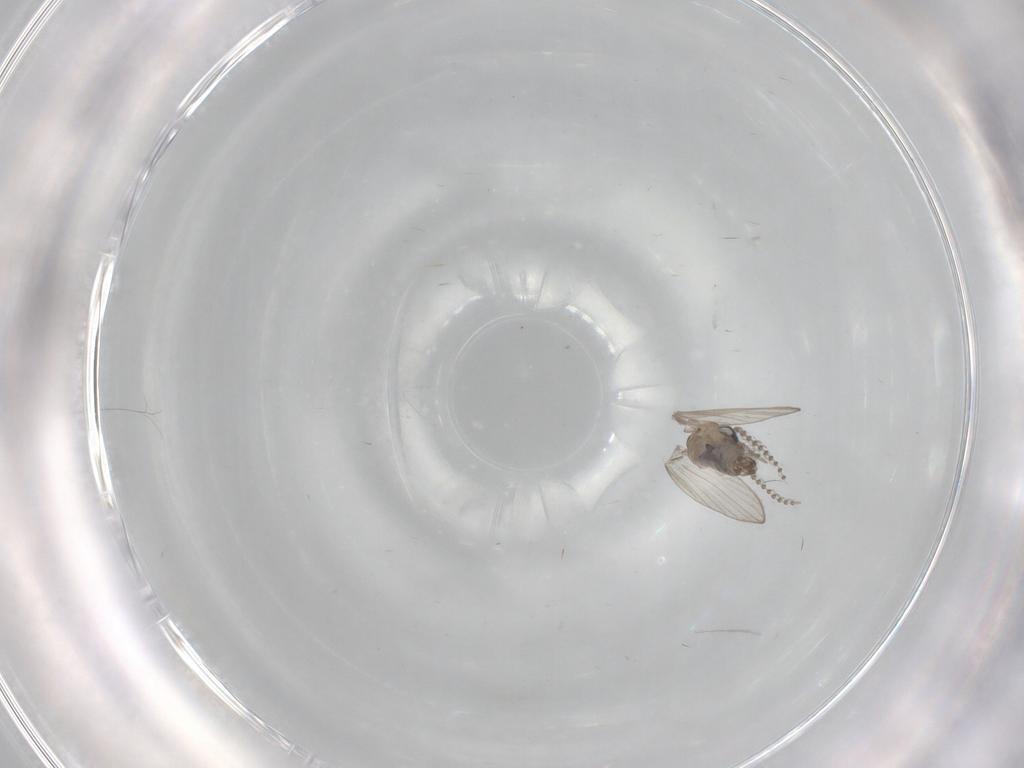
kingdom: Animalia
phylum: Arthropoda
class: Insecta
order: Diptera
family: Psychodidae
